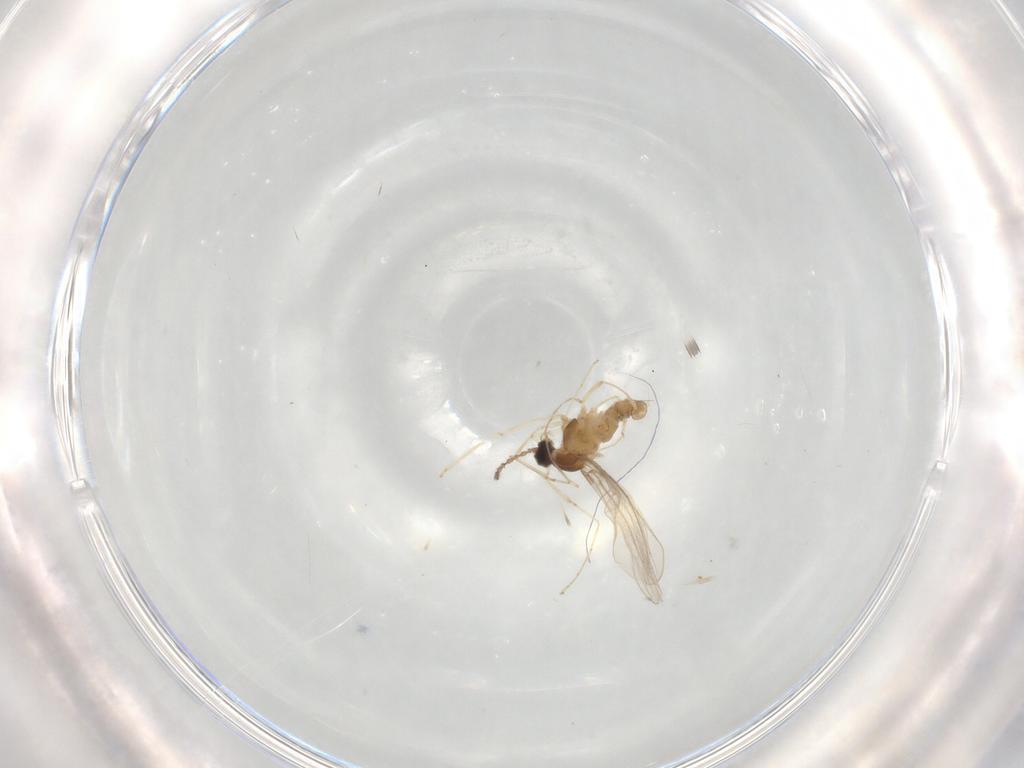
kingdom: Animalia
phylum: Arthropoda
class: Insecta
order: Diptera
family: Cecidomyiidae
